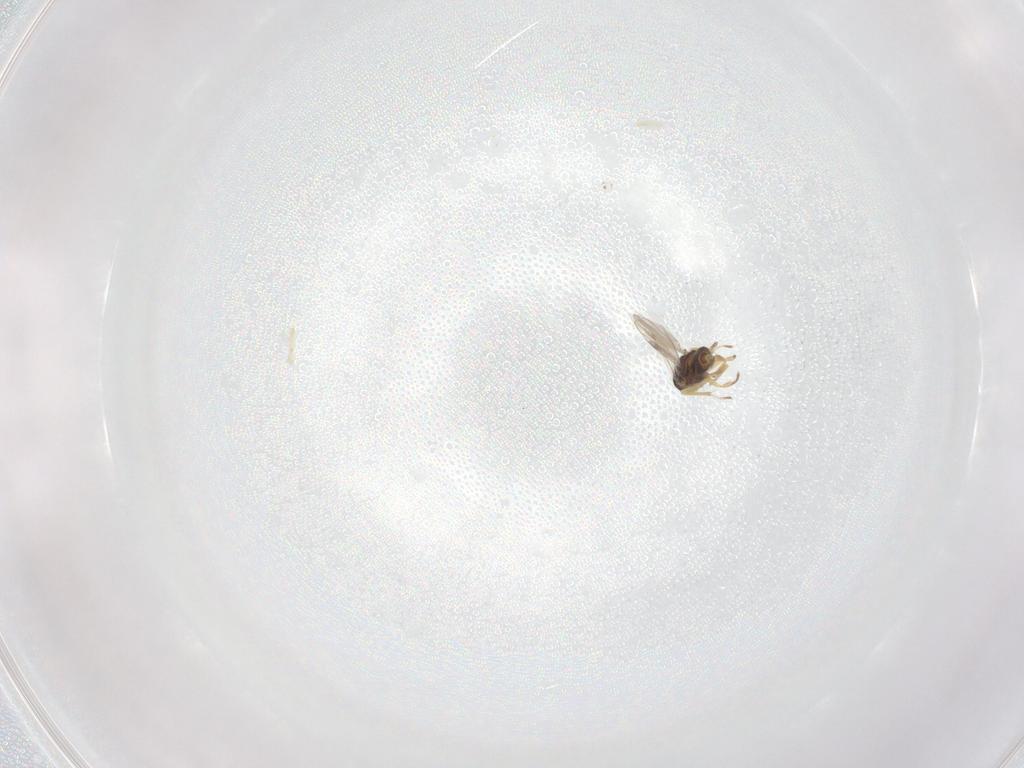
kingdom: Animalia
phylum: Arthropoda
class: Insecta
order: Hymenoptera
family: Encyrtidae
